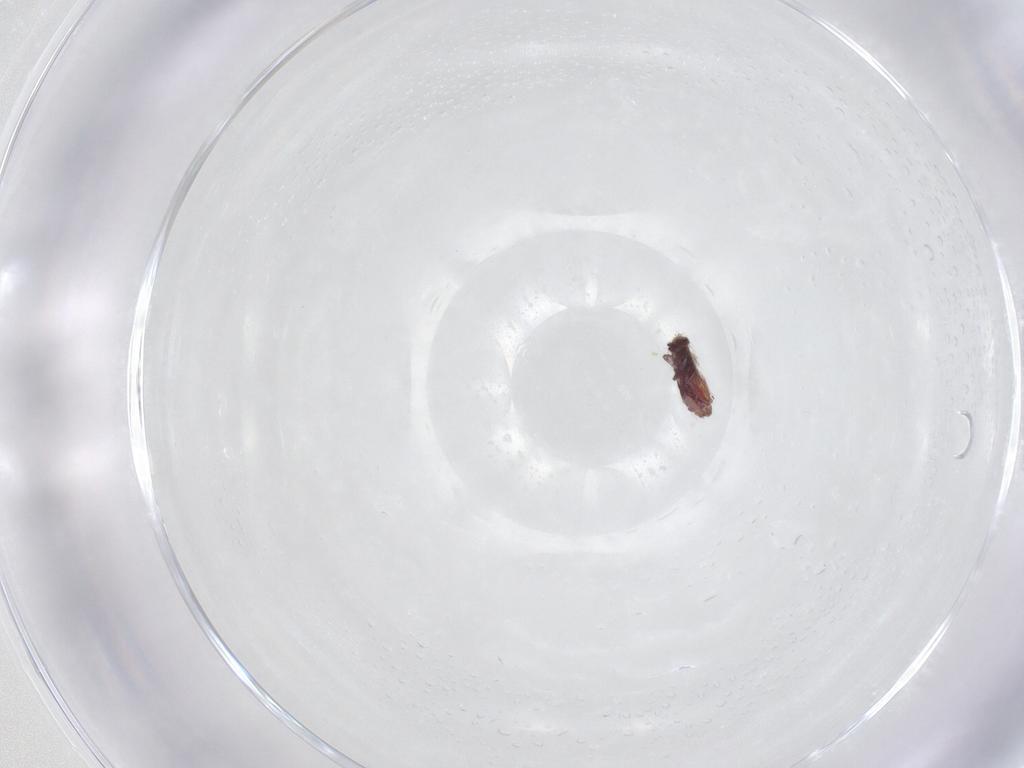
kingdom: Animalia
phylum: Arthropoda
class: Collembola
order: Entomobryomorpha
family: Entomobryidae
